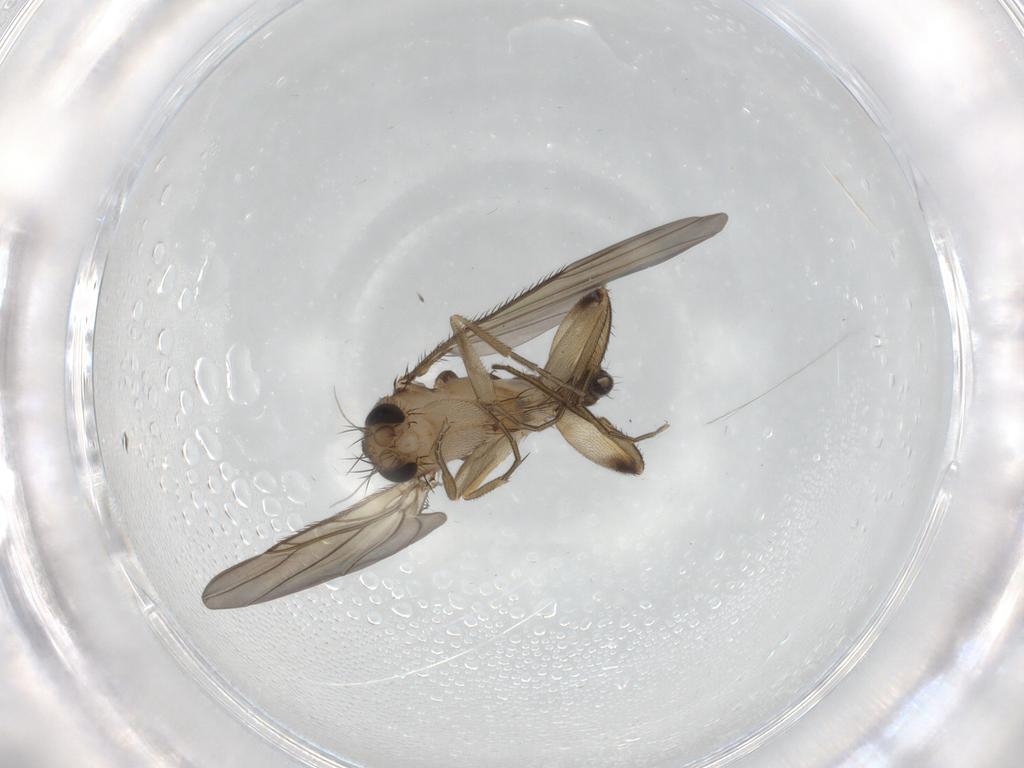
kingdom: Animalia
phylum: Arthropoda
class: Insecta
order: Diptera
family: Phoridae
